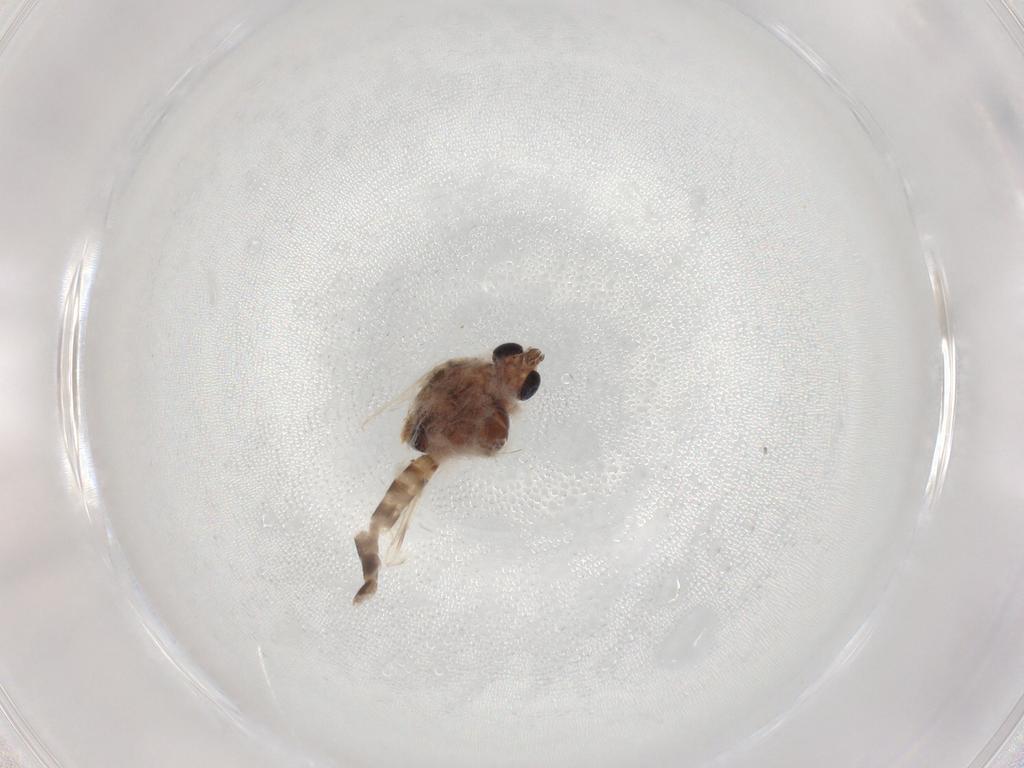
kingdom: Animalia
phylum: Arthropoda
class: Insecta
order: Diptera
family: Chironomidae
